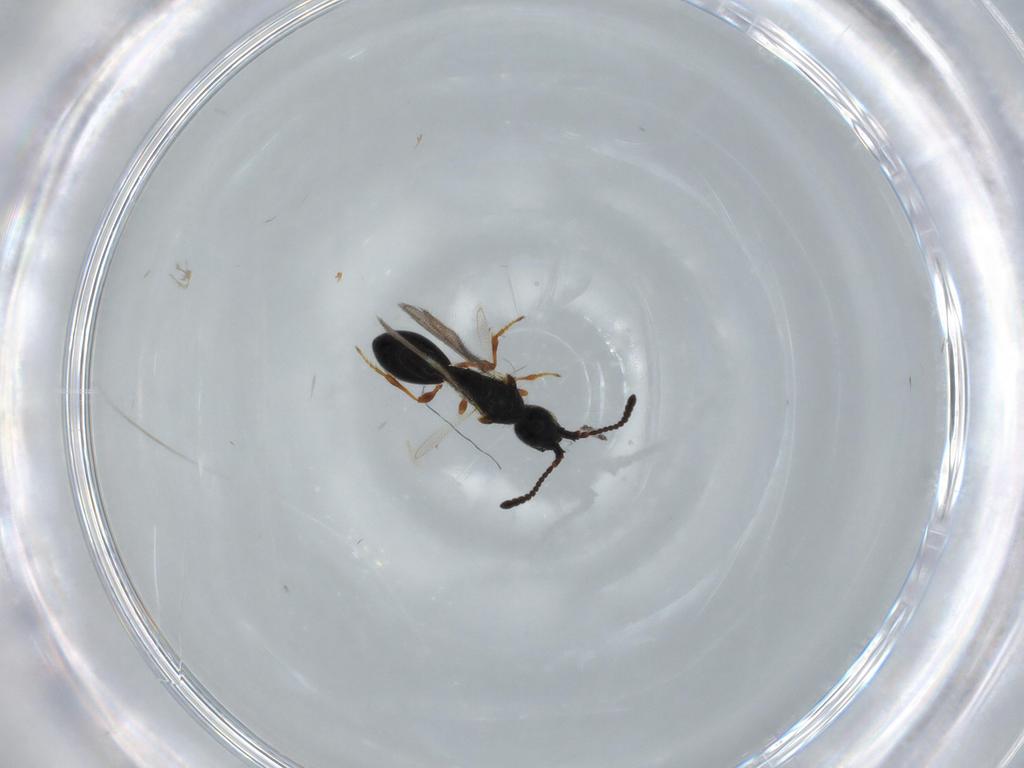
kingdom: Animalia
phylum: Arthropoda
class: Insecta
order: Hymenoptera
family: Diapriidae
